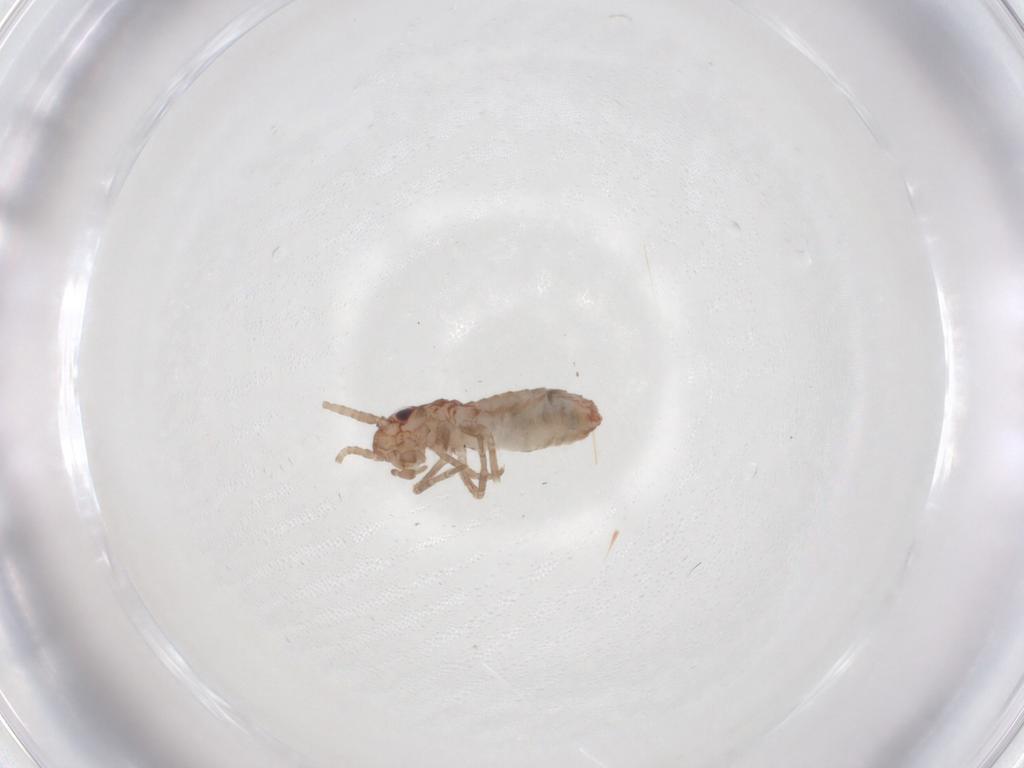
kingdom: Animalia
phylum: Arthropoda
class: Insecta
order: Orthoptera
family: Mogoplistidae
